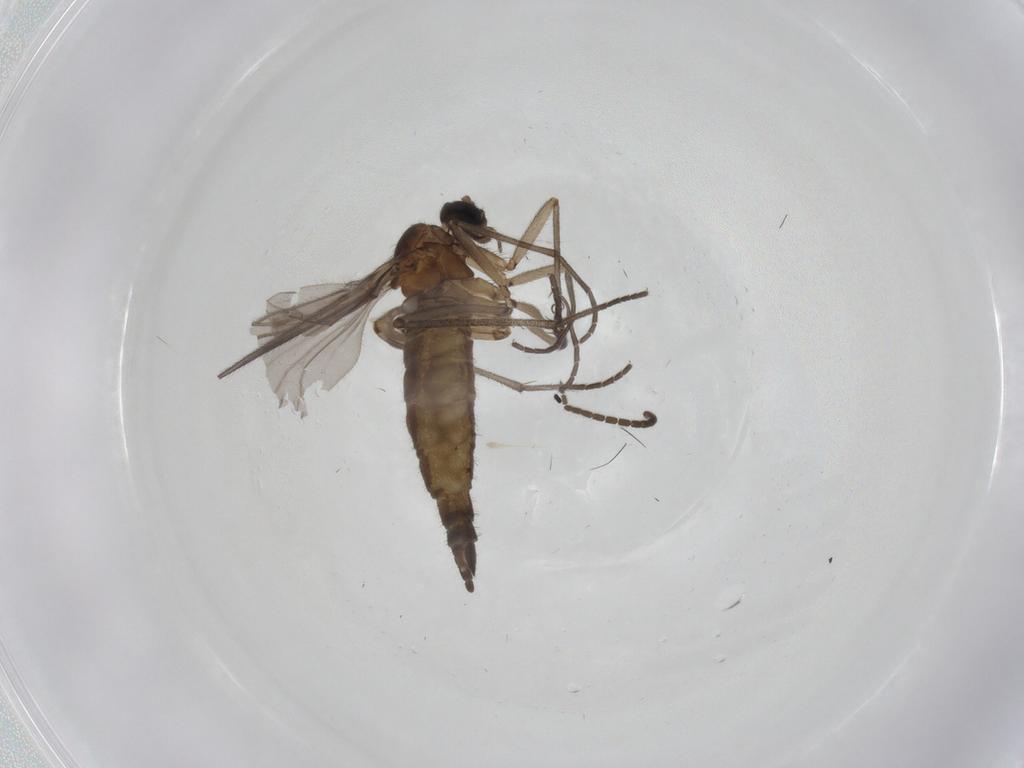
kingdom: Animalia
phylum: Arthropoda
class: Insecta
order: Diptera
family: Sciaridae
